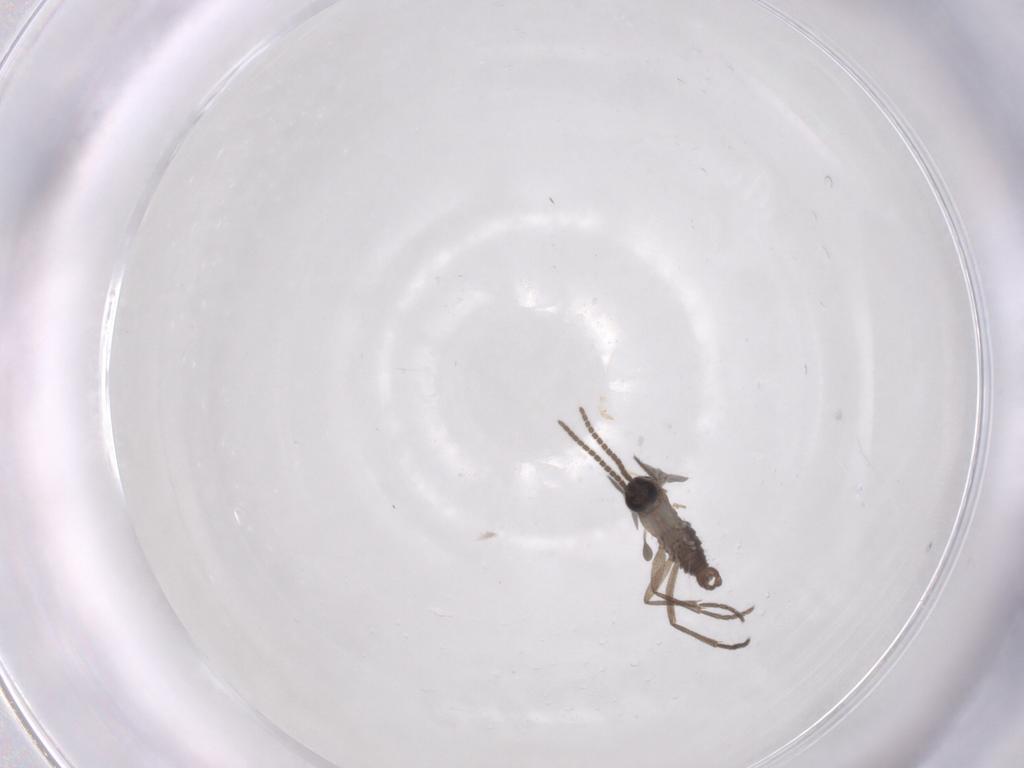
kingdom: Animalia
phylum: Arthropoda
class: Insecta
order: Diptera
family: Sciaridae
